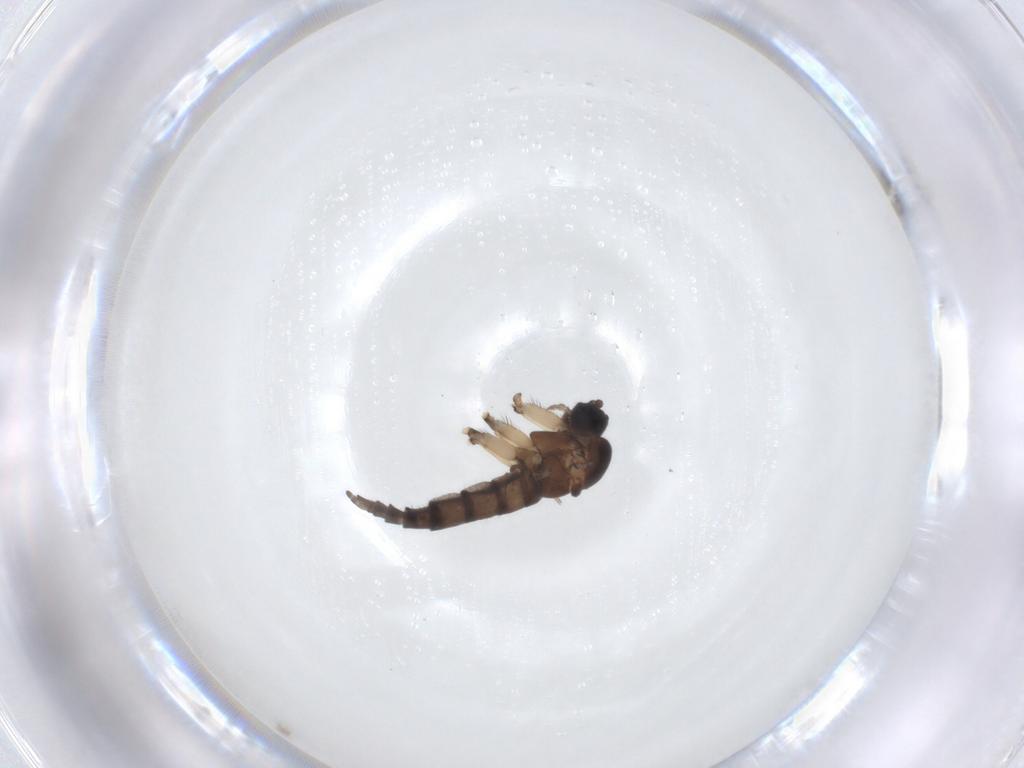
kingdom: Animalia
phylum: Arthropoda
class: Insecta
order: Diptera
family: Sciaridae
